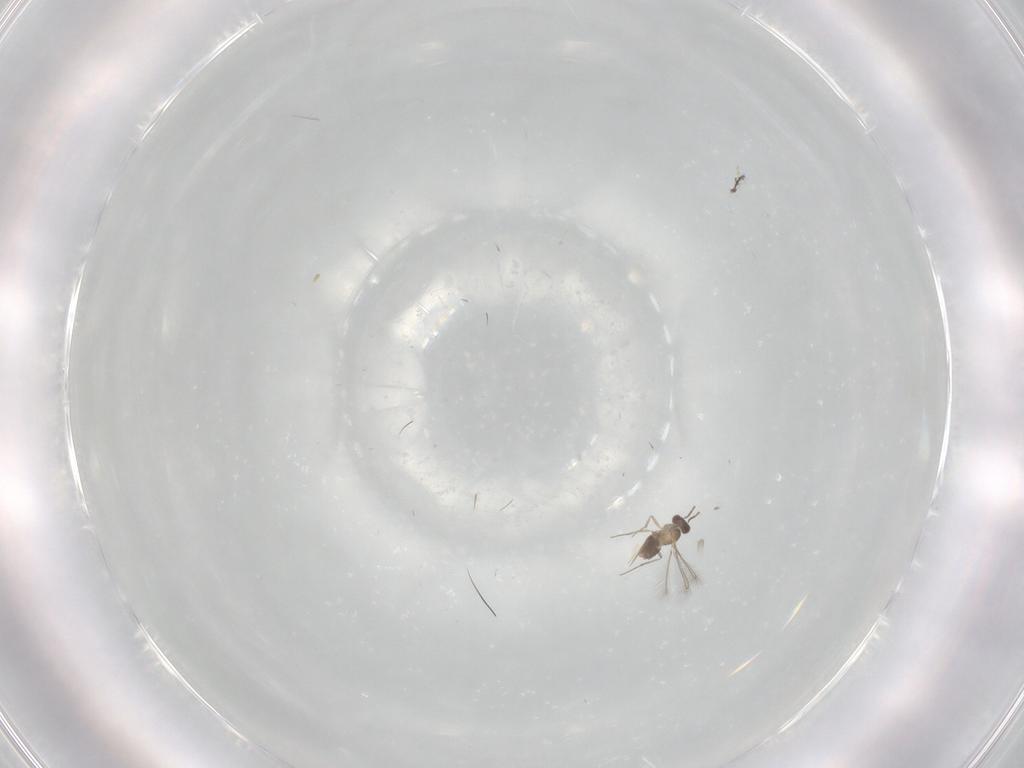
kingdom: Animalia
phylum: Arthropoda
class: Insecta
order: Hymenoptera
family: Mymaridae
